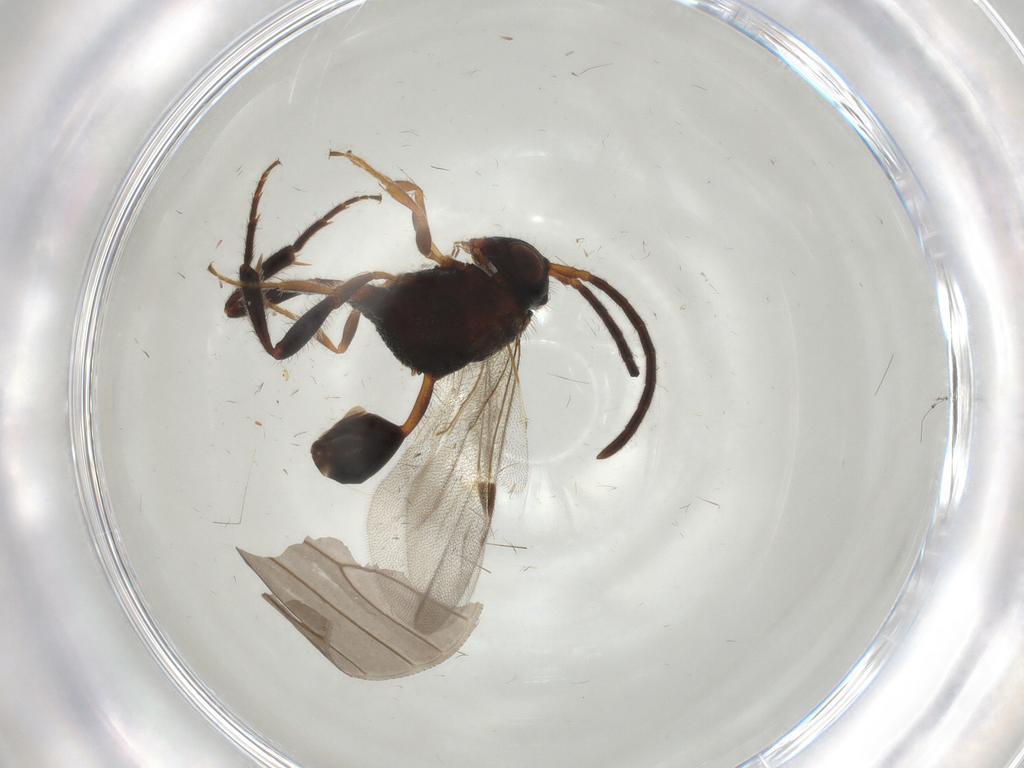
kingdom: Animalia
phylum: Arthropoda
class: Insecta
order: Hymenoptera
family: Evaniidae
